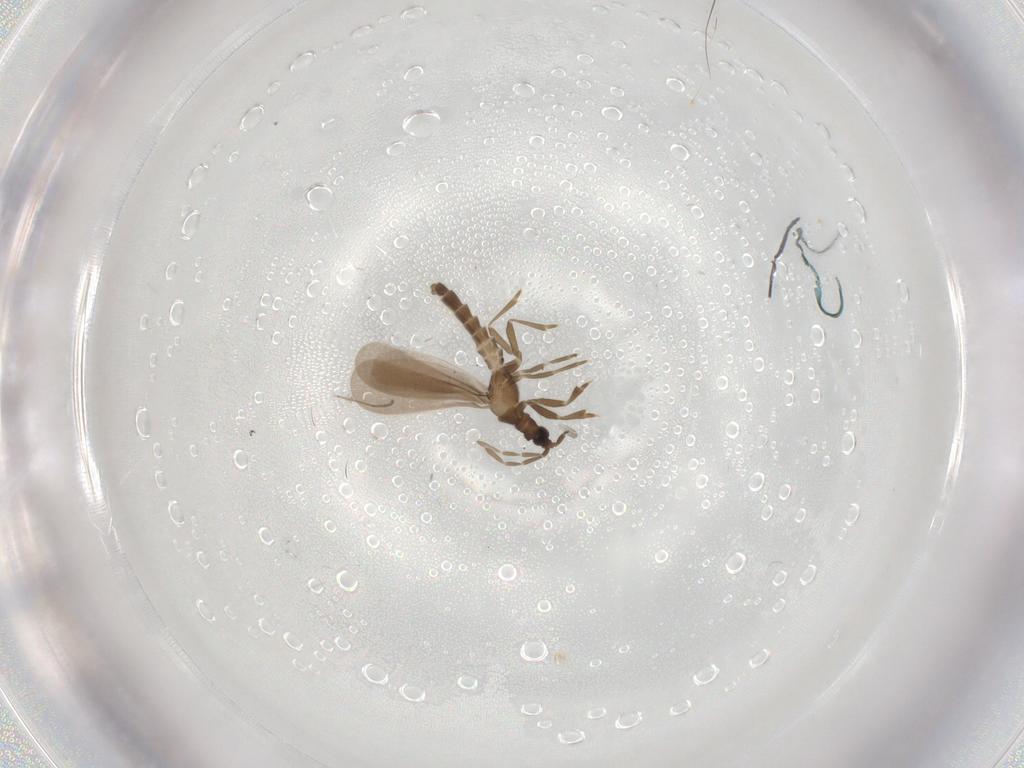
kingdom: Animalia
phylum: Arthropoda
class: Insecta
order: Hemiptera
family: Enicocephalidae
